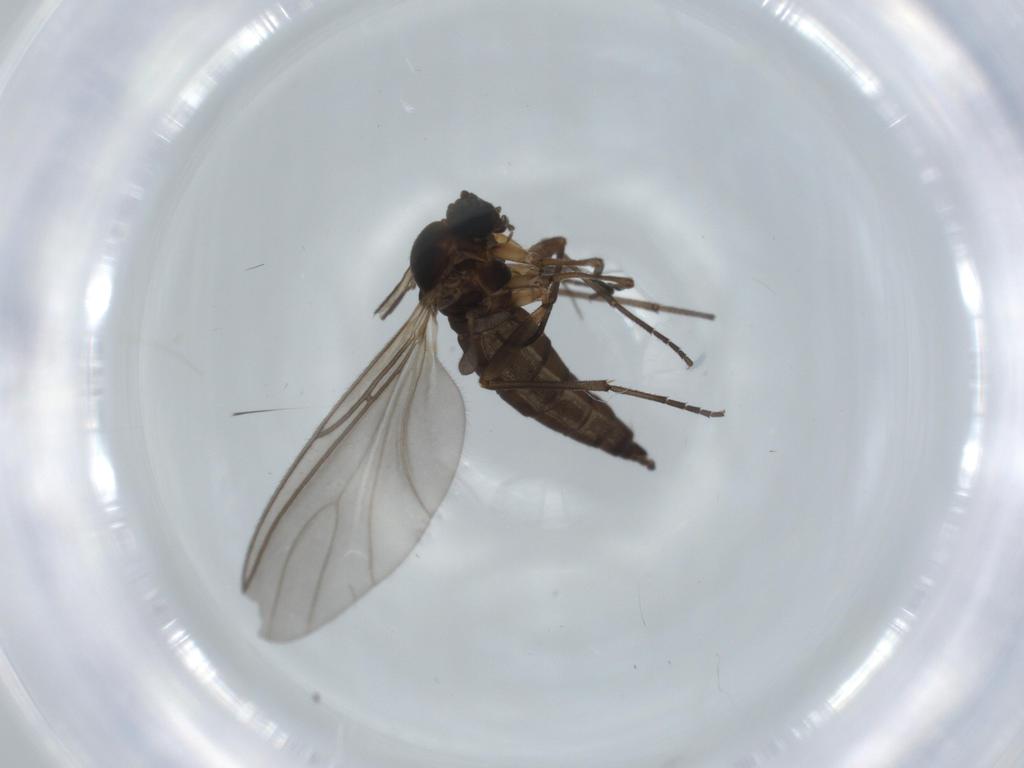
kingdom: Animalia
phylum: Arthropoda
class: Insecta
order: Diptera
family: Sciaridae
